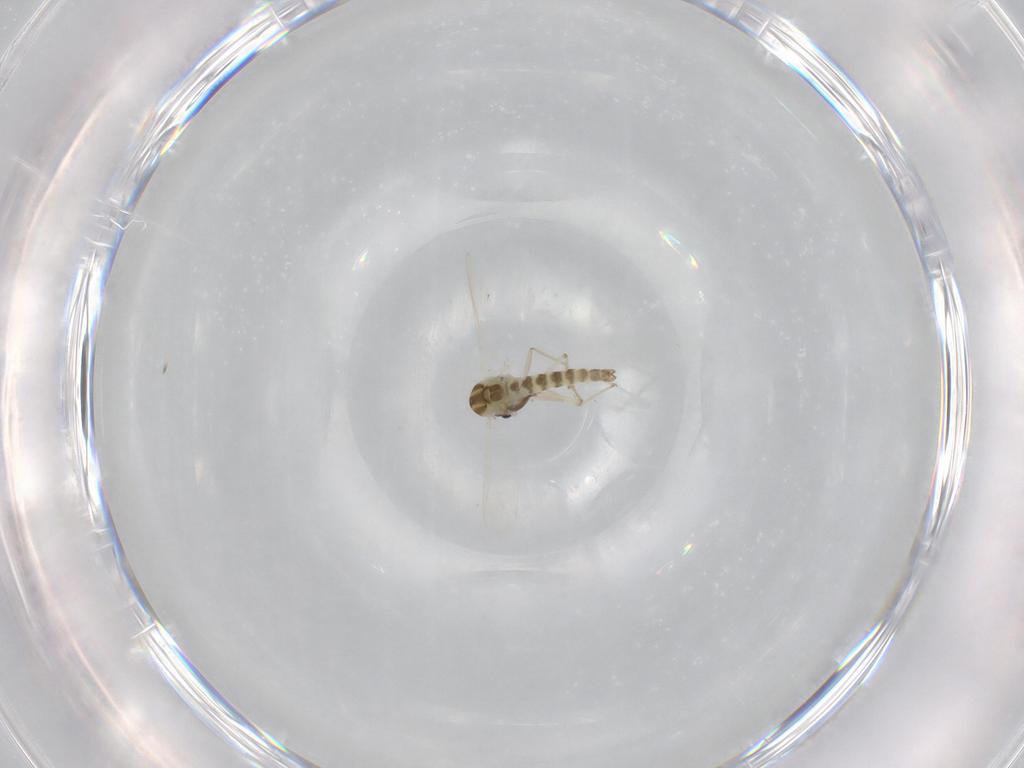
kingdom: Animalia
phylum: Arthropoda
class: Insecta
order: Diptera
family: Chironomidae
